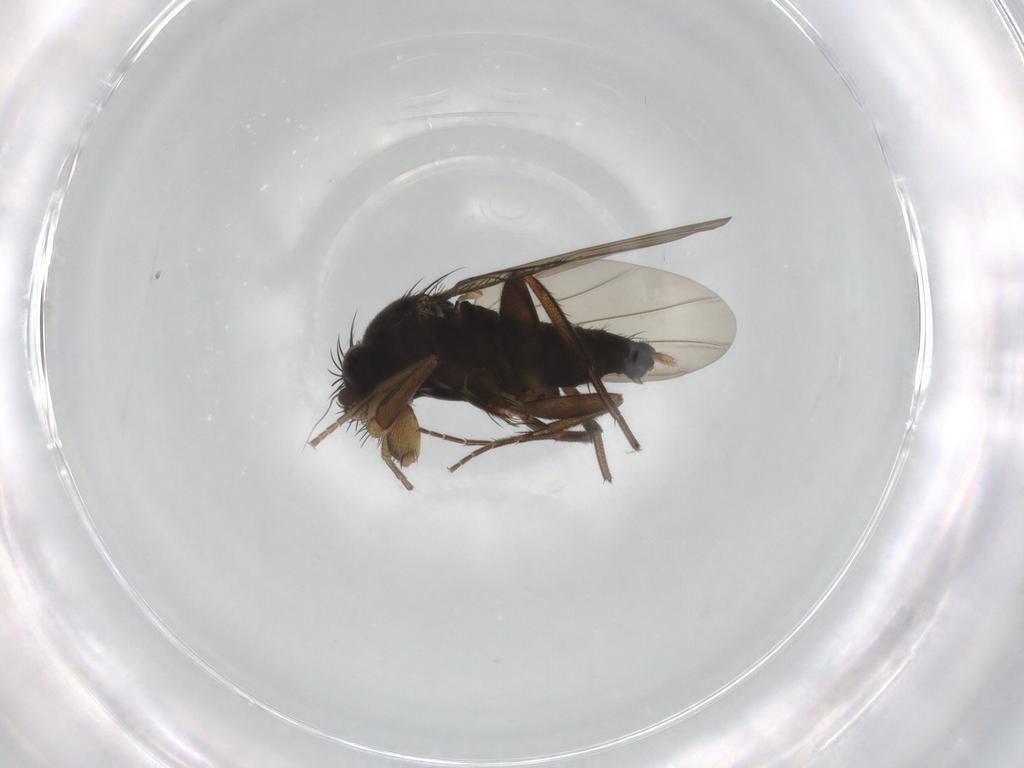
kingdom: Animalia
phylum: Arthropoda
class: Insecta
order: Diptera
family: Phoridae
